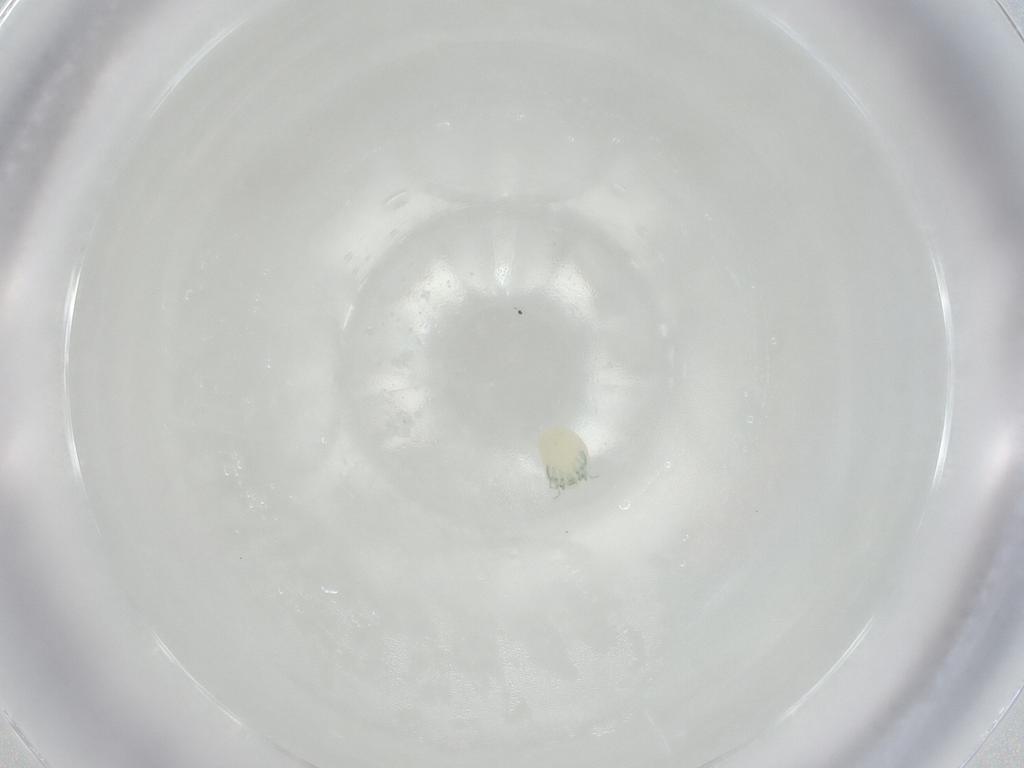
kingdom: Animalia
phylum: Arthropoda
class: Arachnida
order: Trombidiformes
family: Arrenuridae
